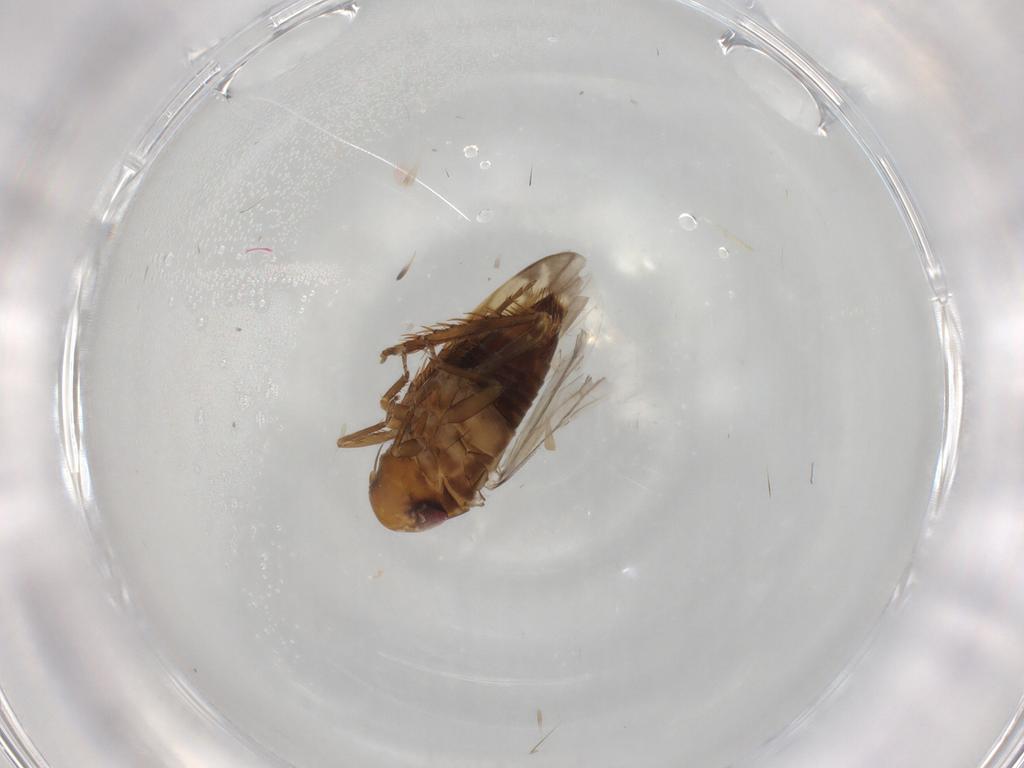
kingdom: Animalia
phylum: Arthropoda
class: Insecta
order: Hemiptera
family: Cicadellidae
